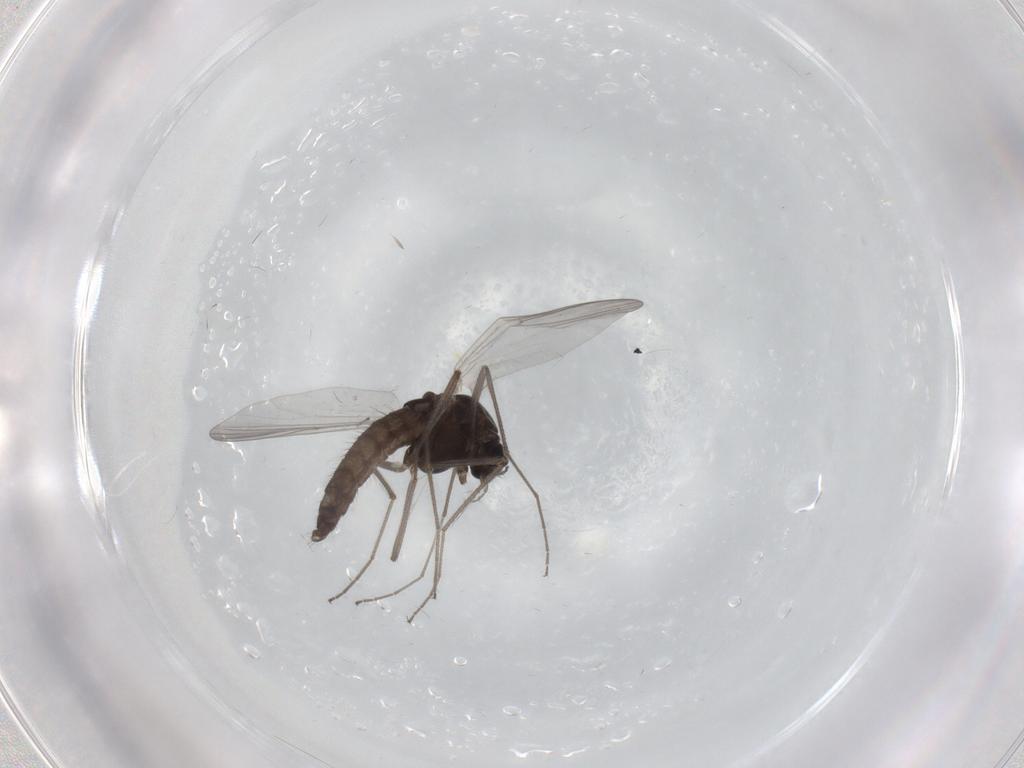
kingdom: Animalia
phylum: Arthropoda
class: Insecta
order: Diptera
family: Chironomidae
